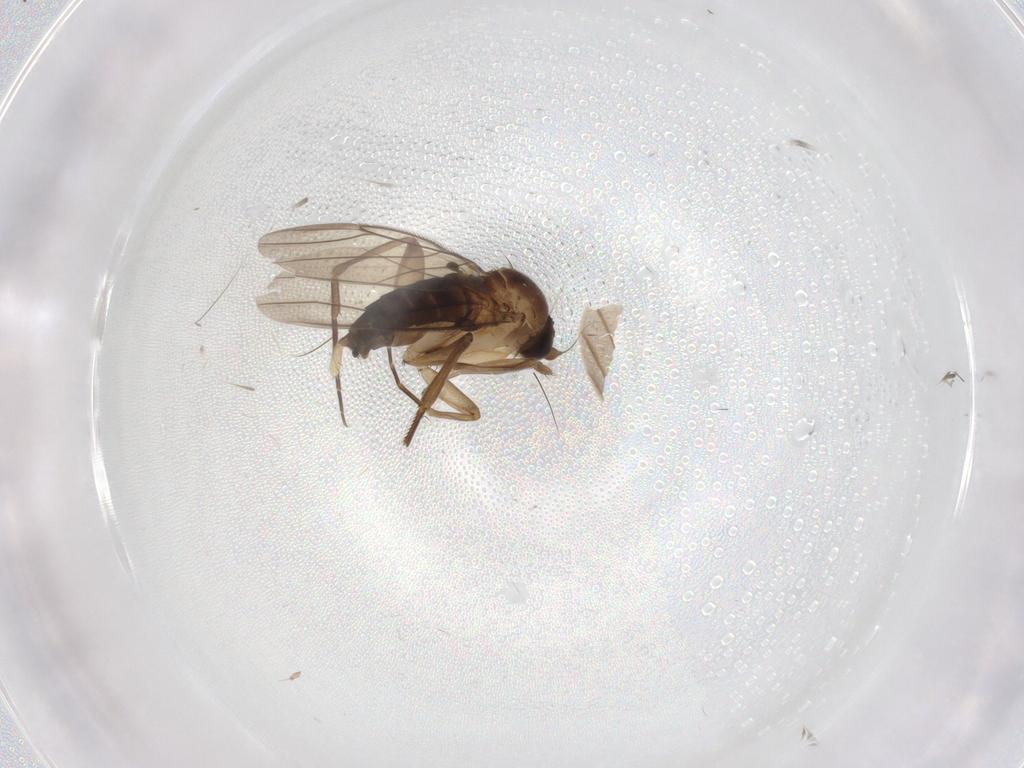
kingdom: Animalia
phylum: Arthropoda
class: Insecta
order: Diptera
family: Phoridae
